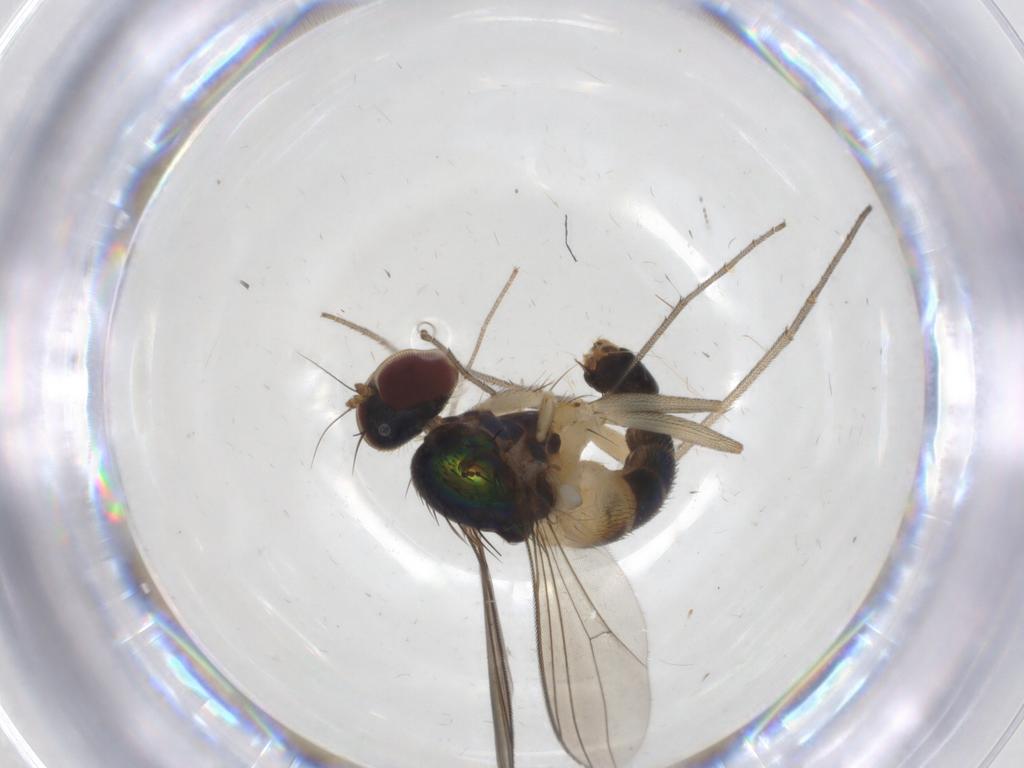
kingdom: Animalia
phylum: Arthropoda
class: Insecta
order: Diptera
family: Dolichopodidae
